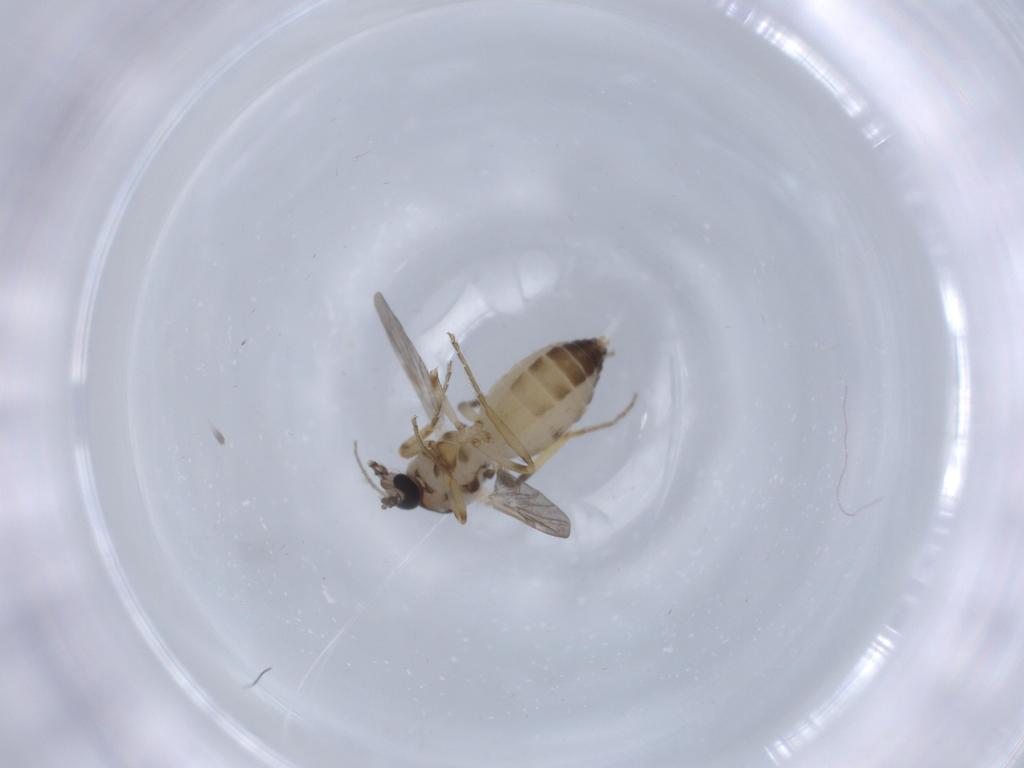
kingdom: Animalia
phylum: Arthropoda
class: Insecta
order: Diptera
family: Ceratopogonidae
